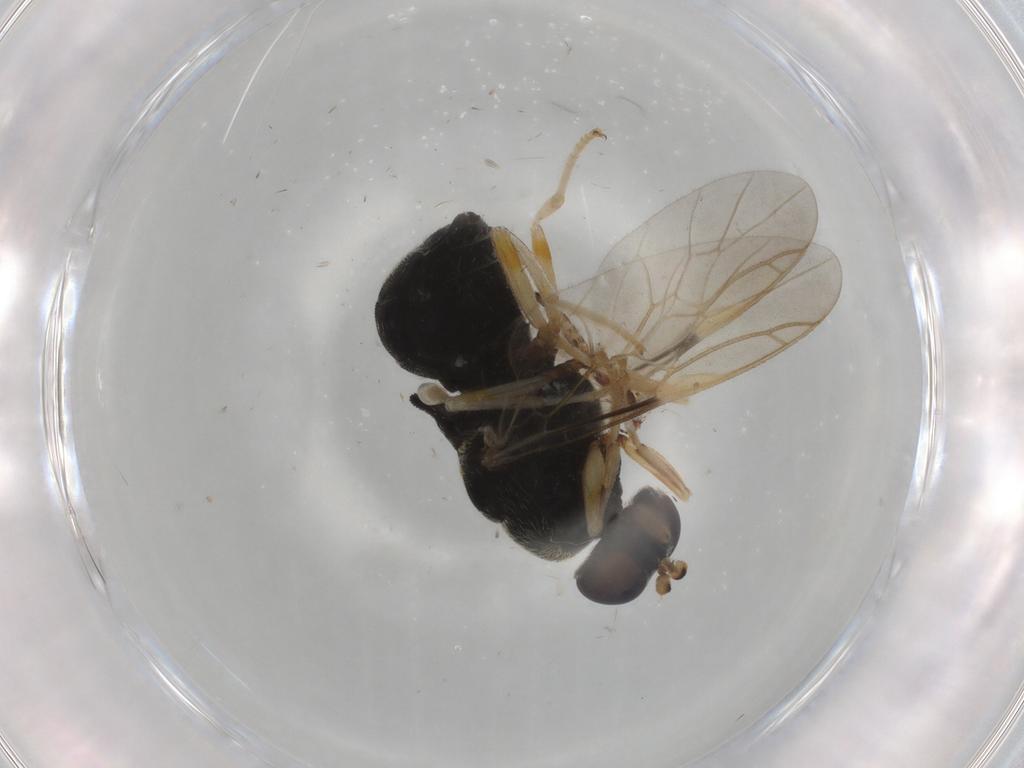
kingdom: Animalia
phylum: Arthropoda
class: Insecta
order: Diptera
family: Stratiomyidae
